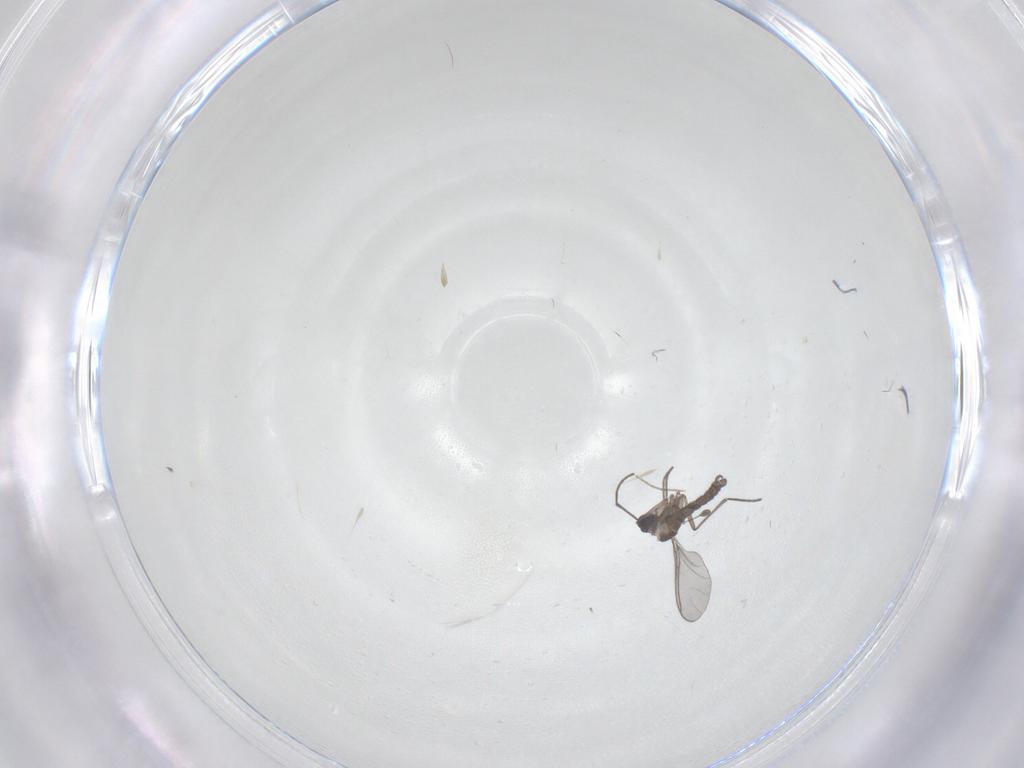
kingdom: Animalia
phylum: Arthropoda
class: Insecta
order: Diptera
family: Sciaridae
